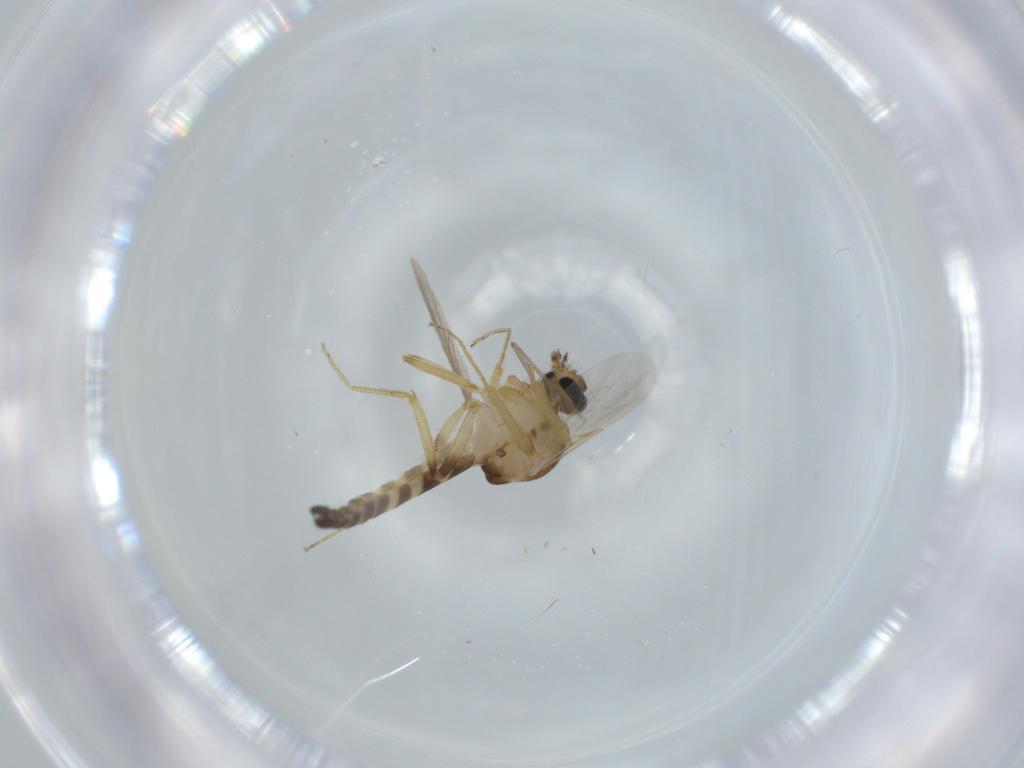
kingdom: Animalia
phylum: Arthropoda
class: Insecta
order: Diptera
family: Ceratopogonidae
